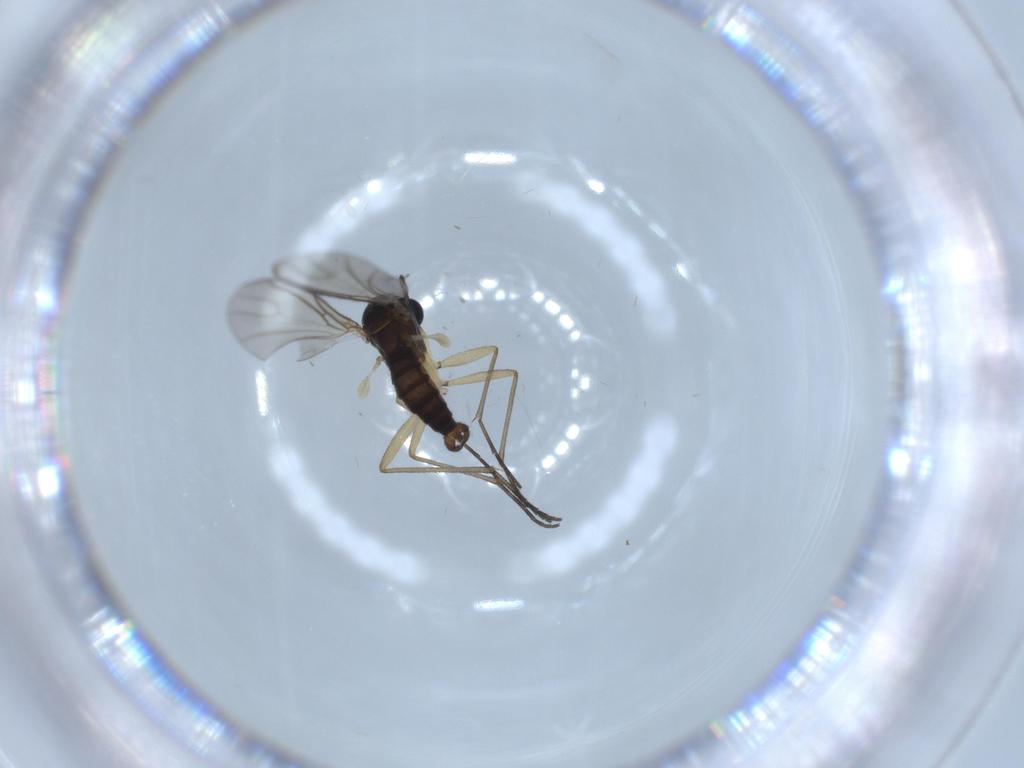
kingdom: Animalia
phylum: Arthropoda
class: Insecta
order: Diptera
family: Sciaridae
